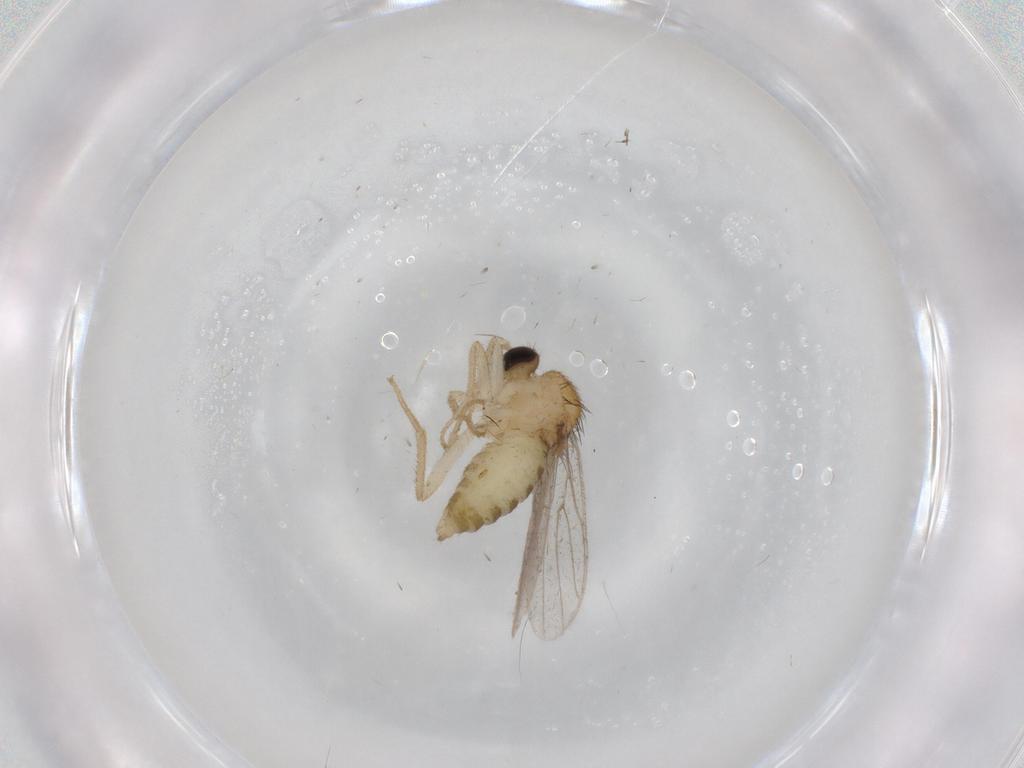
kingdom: Animalia
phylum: Arthropoda
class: Insecta
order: Diptera
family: Hybotidae
